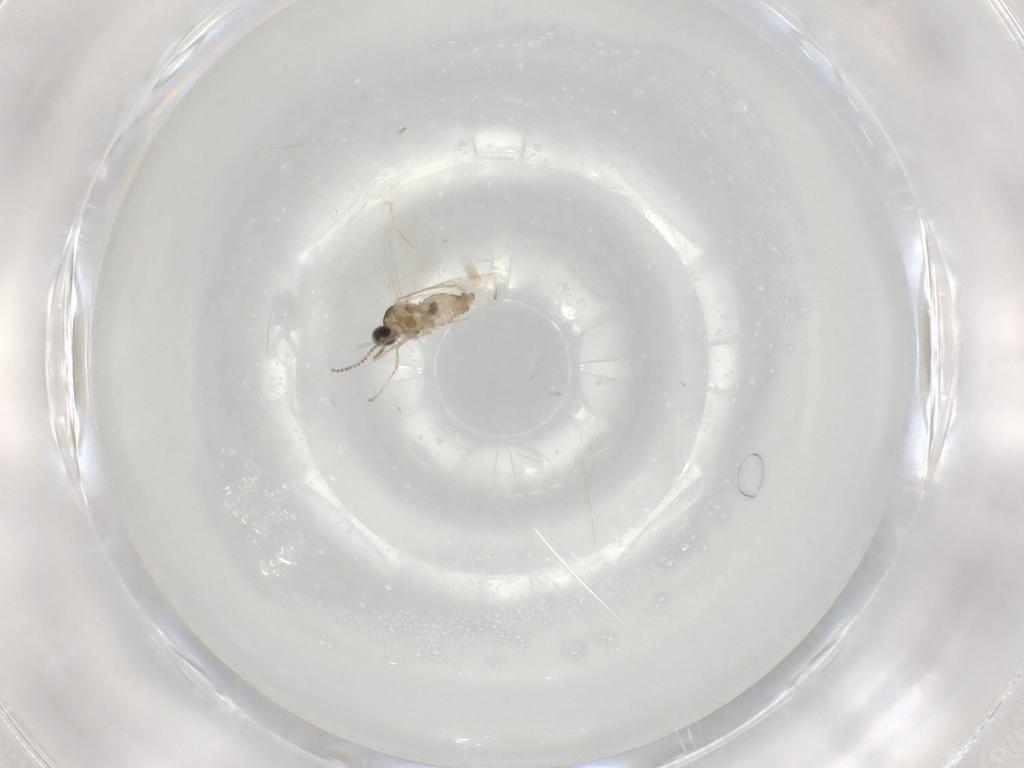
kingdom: Animalia
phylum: Arthropoda
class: Insecta
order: Diptera
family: Cecidomyiidae
